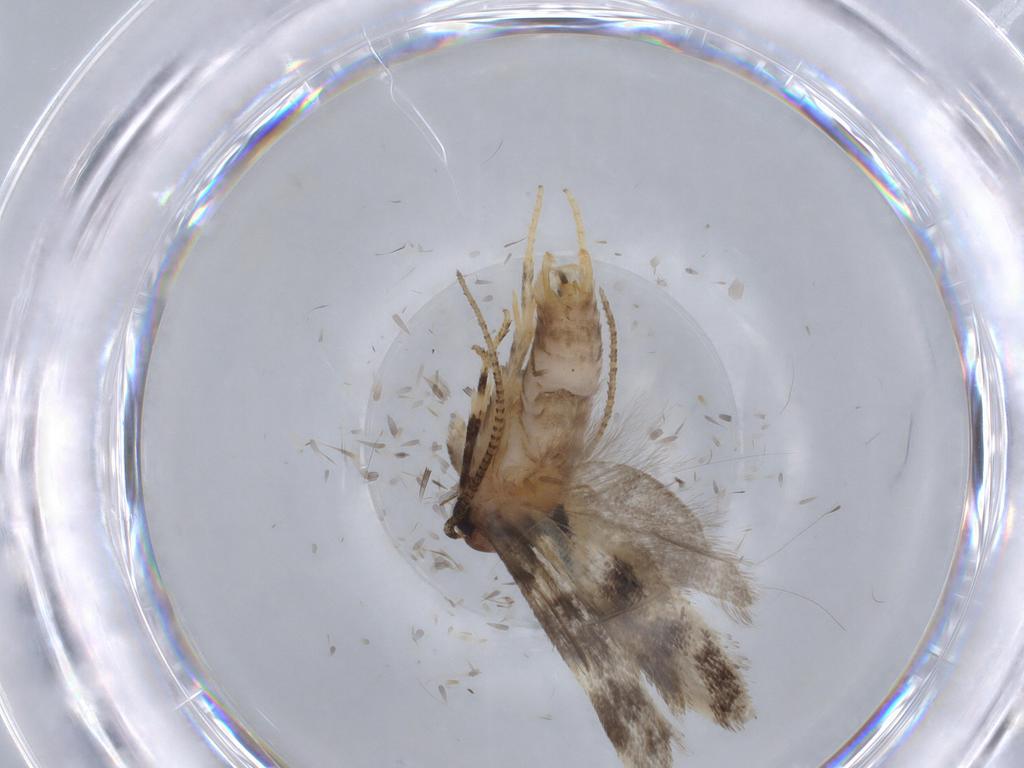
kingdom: Animalia
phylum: Arthropoda
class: Insecta
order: Lepidoptera
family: Gelechiidae
